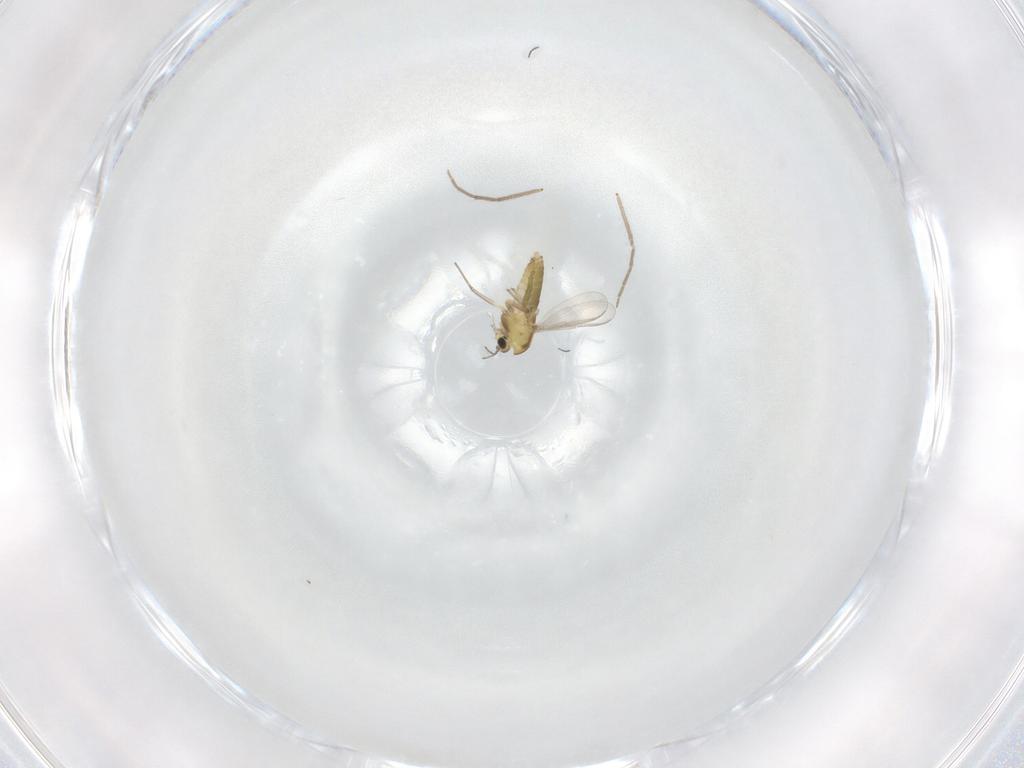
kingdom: Animalia
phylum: Arthropoda
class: Insecta
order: Diptera
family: Chironomidae
